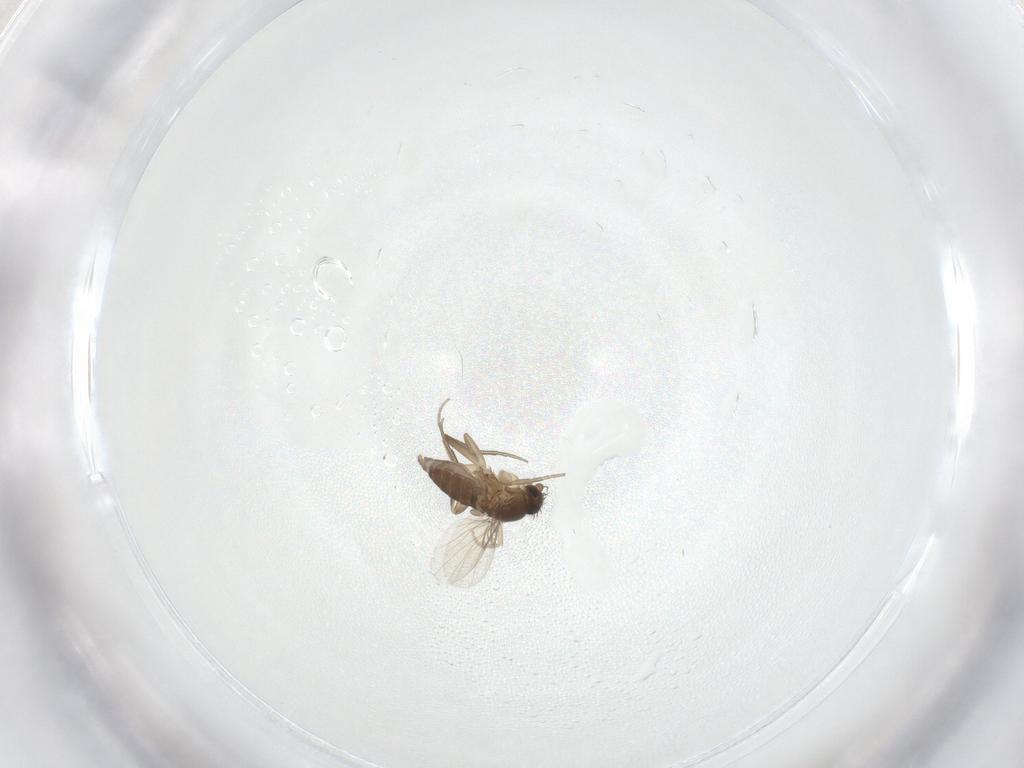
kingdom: Animalia
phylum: Arthropoda
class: Insecta
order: Diptera
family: Phoridae
